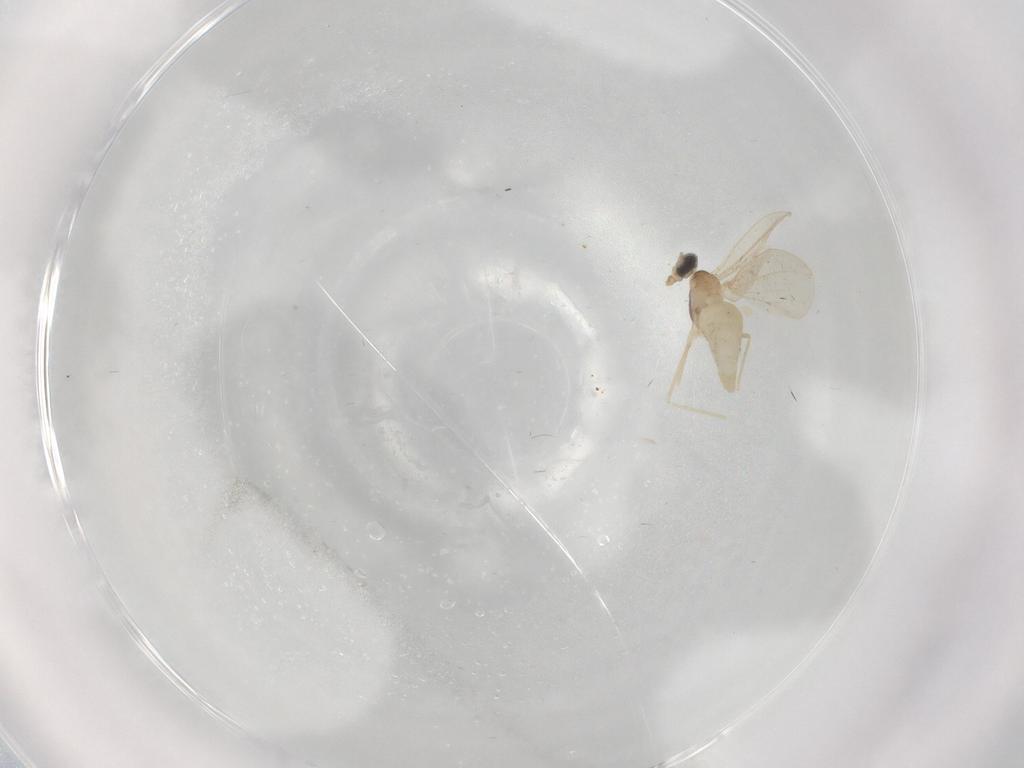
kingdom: Animalia
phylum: Arthropoda
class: Insecta
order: Diptera
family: Cecidomyiidae
